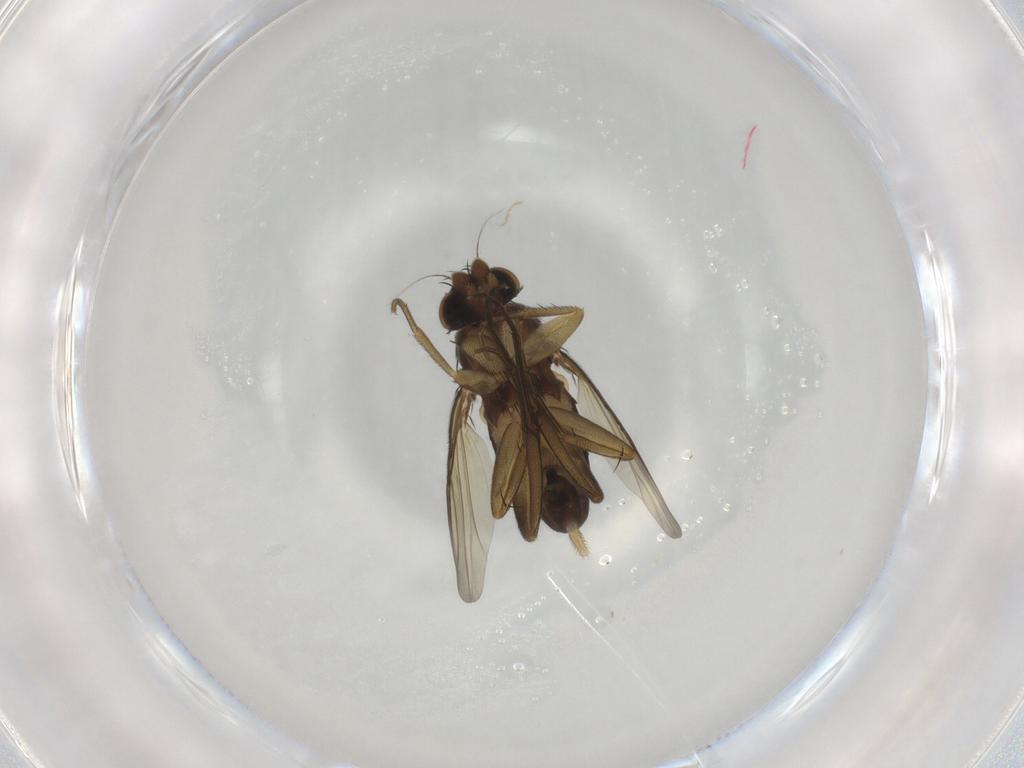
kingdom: Animalia
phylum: Arthropoda
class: Insecta
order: Diptera
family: Phoridae
